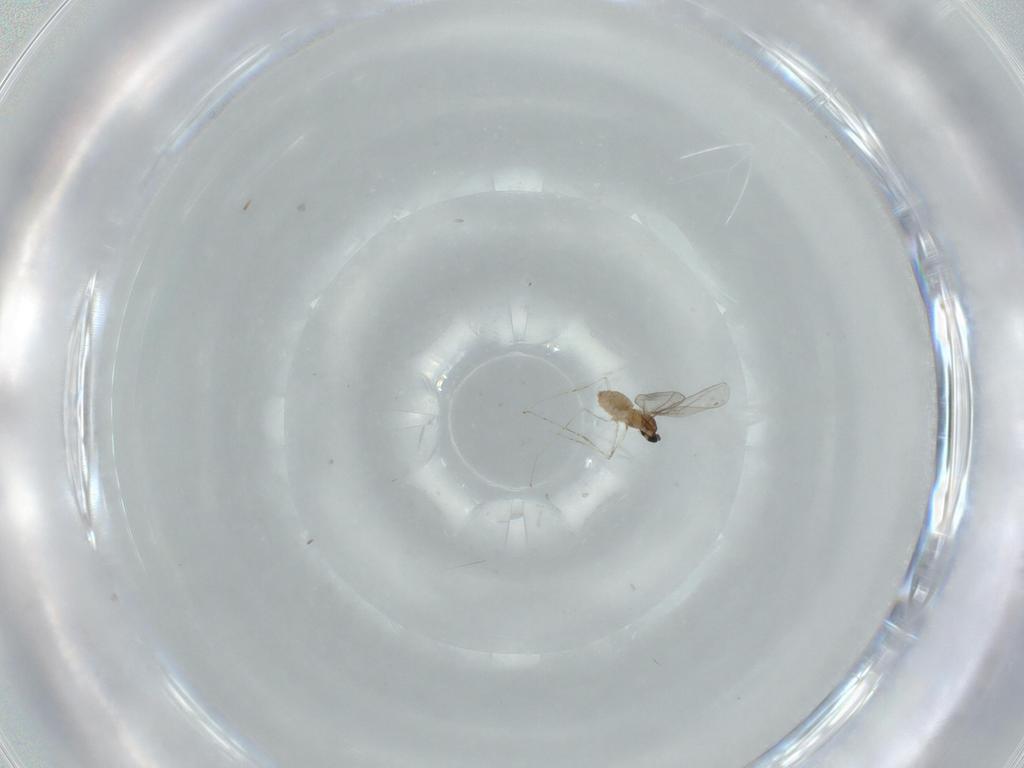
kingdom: Animalia
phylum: Arthropoda
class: Insecta
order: Diptera
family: Cecidomyiidae
